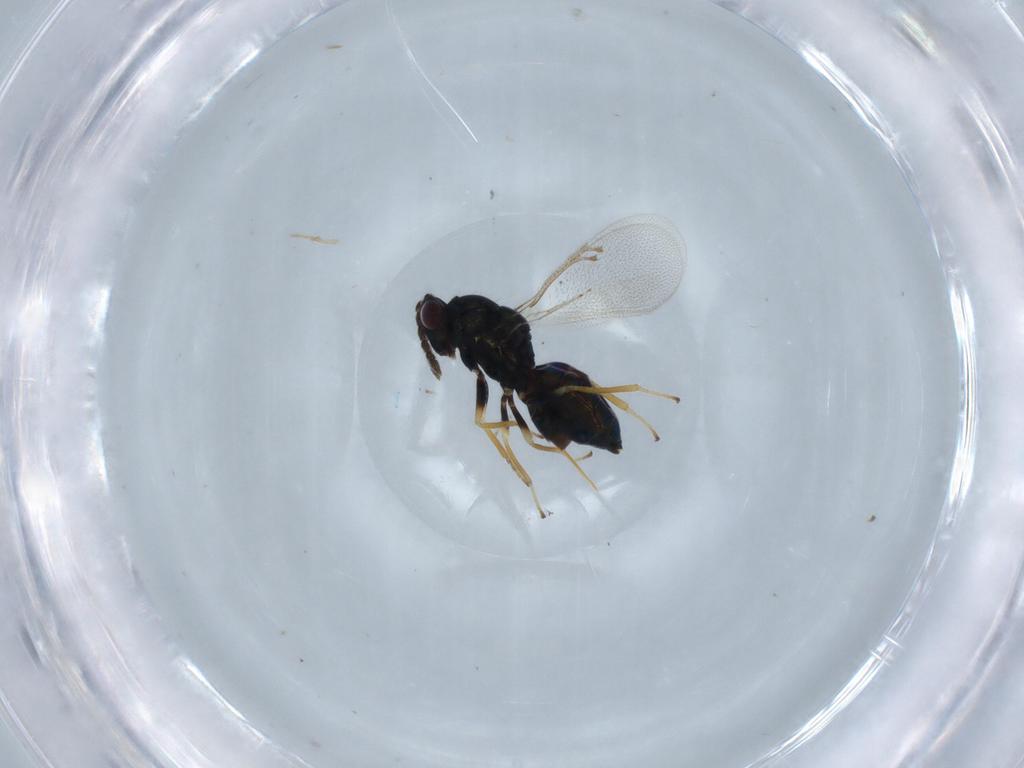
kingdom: Animalia
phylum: Arthropoda
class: Insecta
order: Hymenoptera
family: Eulophidae
